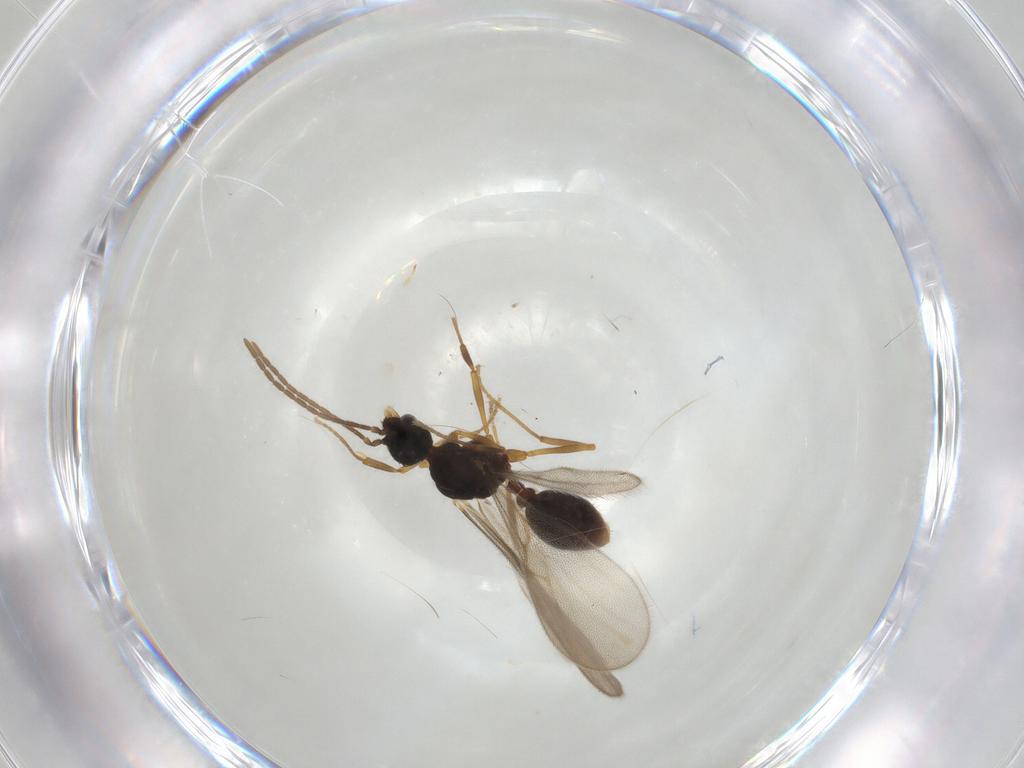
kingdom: Animalia
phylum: Arthropoda
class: Insecta
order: Hymenoptera
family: Formicidae
